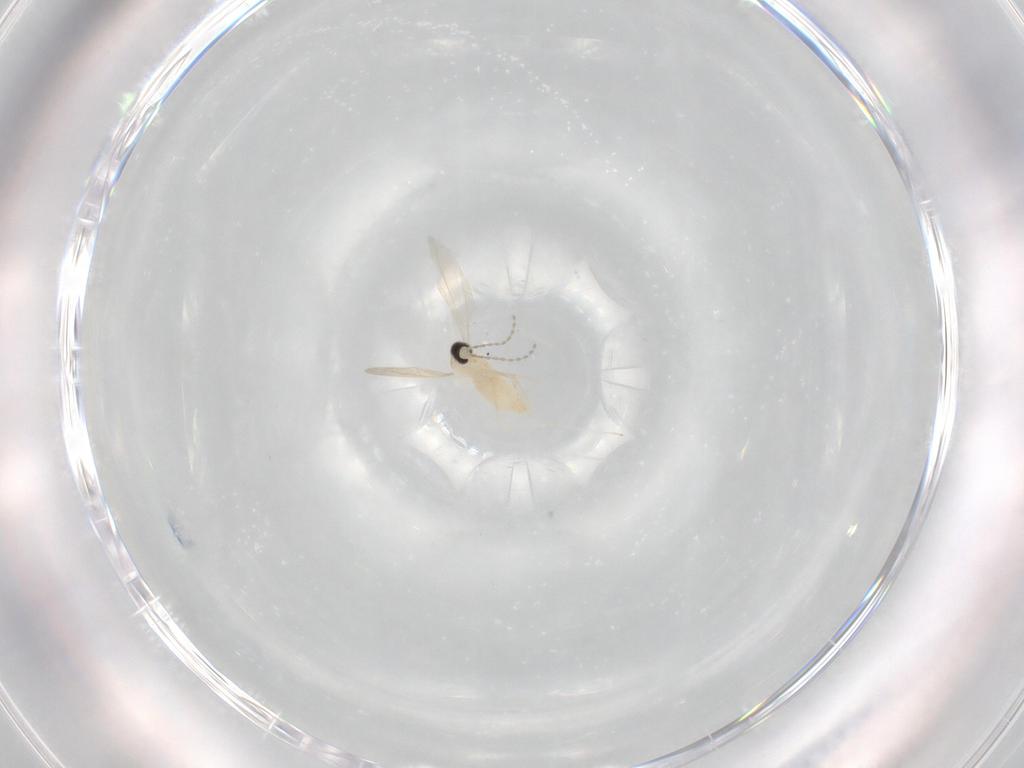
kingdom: Animalia
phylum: Arthropoda
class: Insecta
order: Diptera
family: Cecidomyiidae
